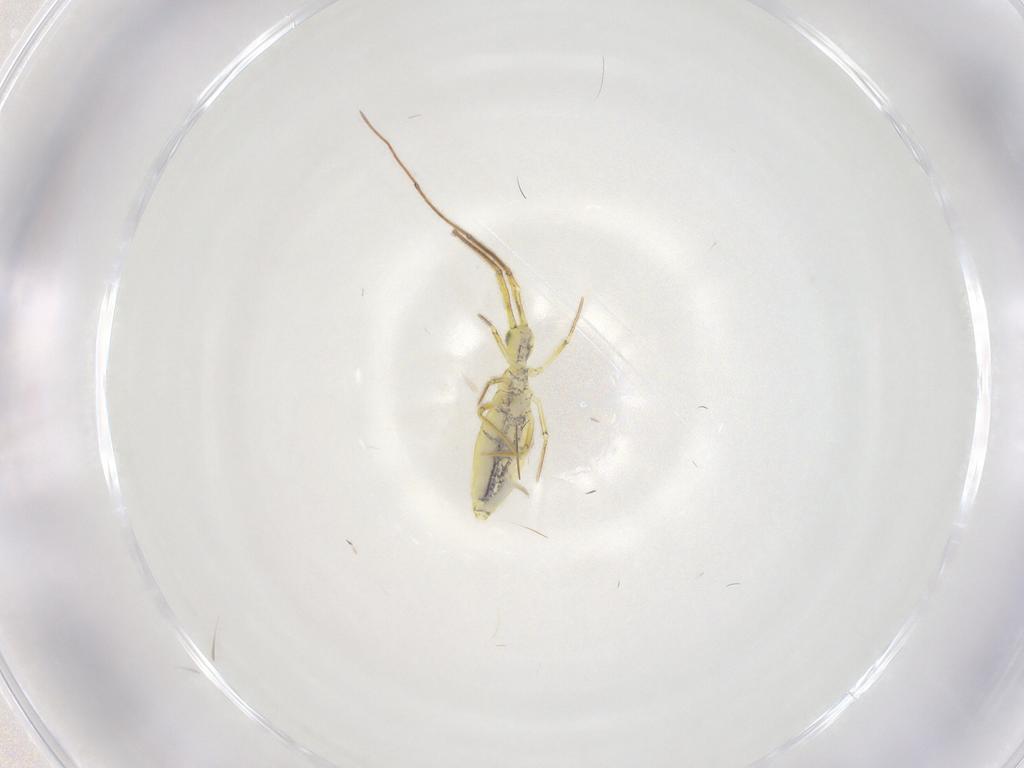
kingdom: Animalia
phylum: Arthropoda
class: Collembola
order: Entomobryomorpha
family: Paronellidae
